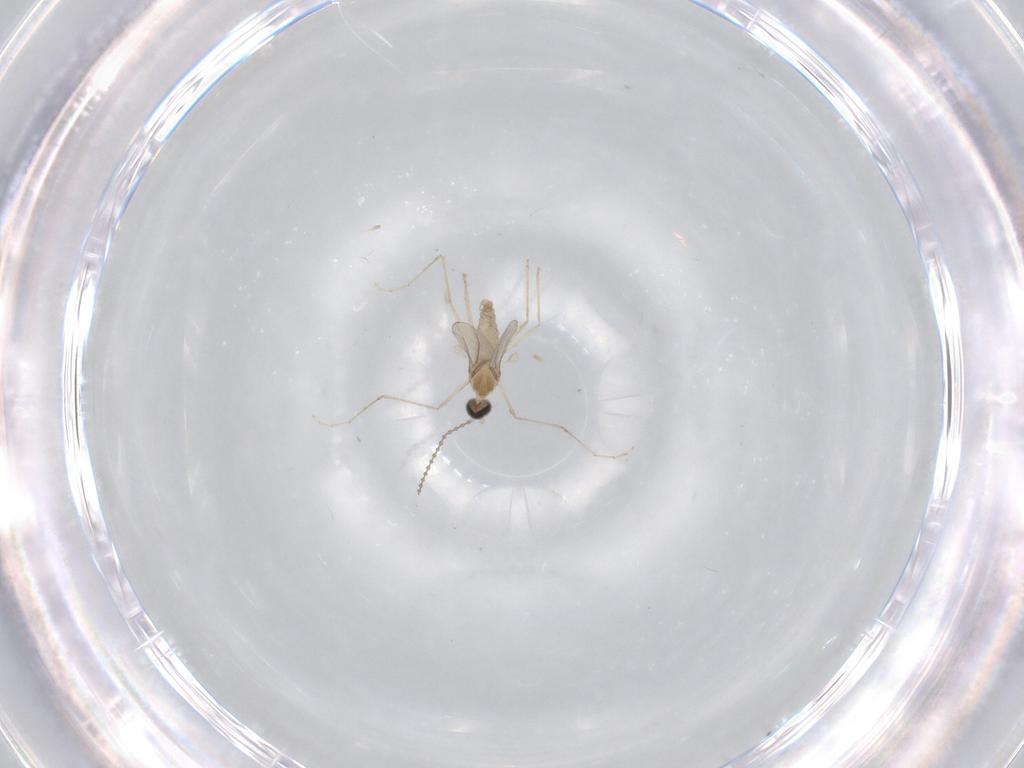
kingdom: Animalia
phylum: Arthropoda
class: Insecta
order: Diptera
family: Cecidomyiidae
